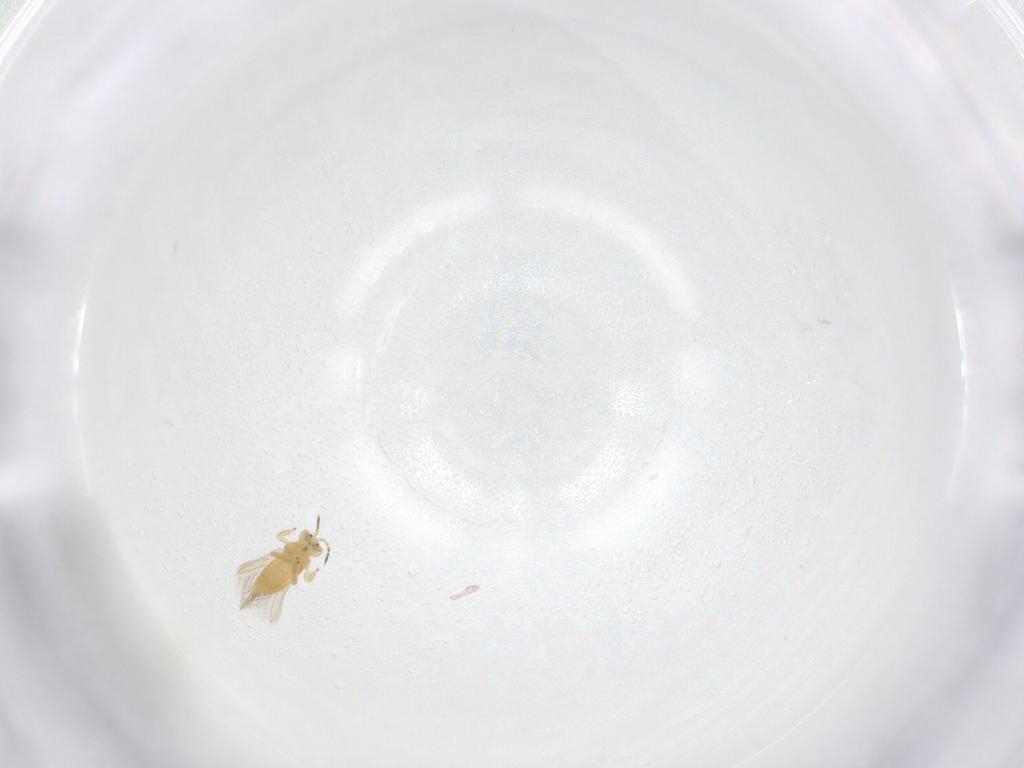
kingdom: Animalia
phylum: Arthropoda
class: Insecta
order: Thysanoptera
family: Thripidae
